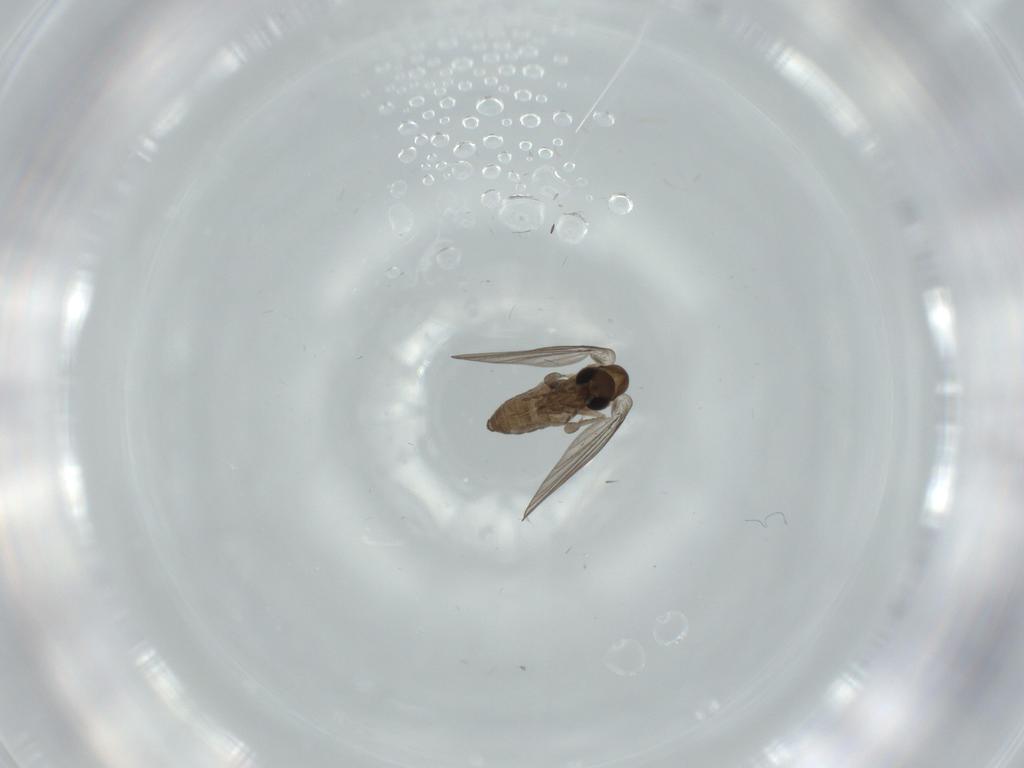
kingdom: Animalia
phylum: Arthropoda
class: Insecta
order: Diptera
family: Psychodidae
